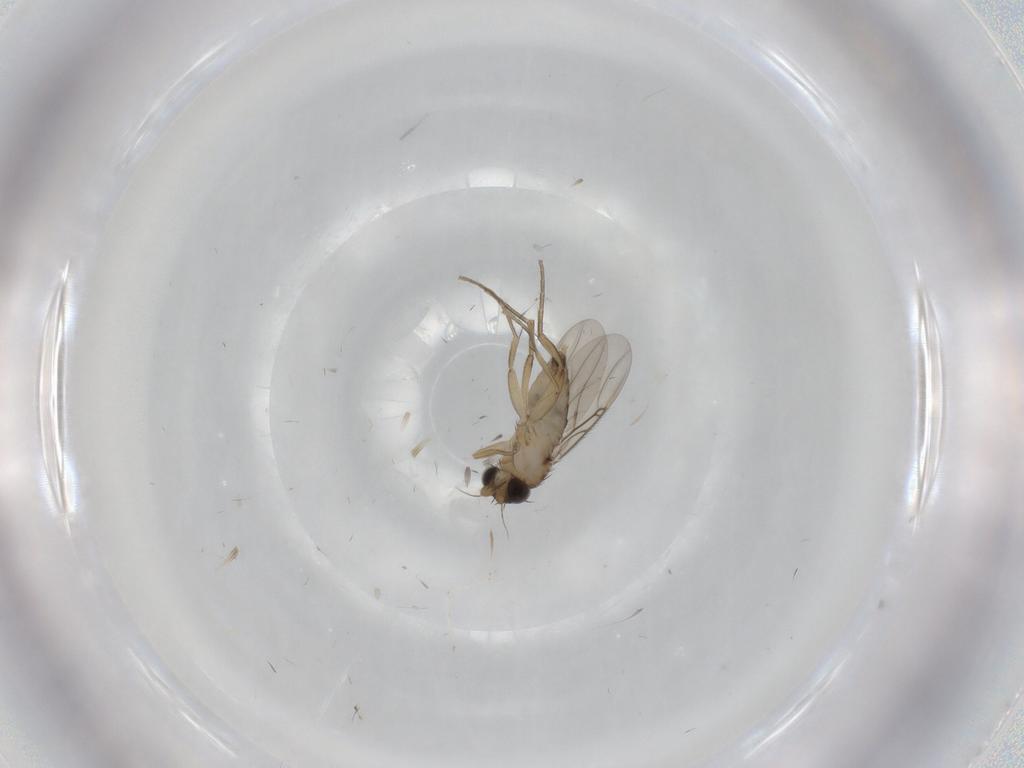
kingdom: Animalia
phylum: Arthropoda
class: Insecta
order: Diptera
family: Phoridae
